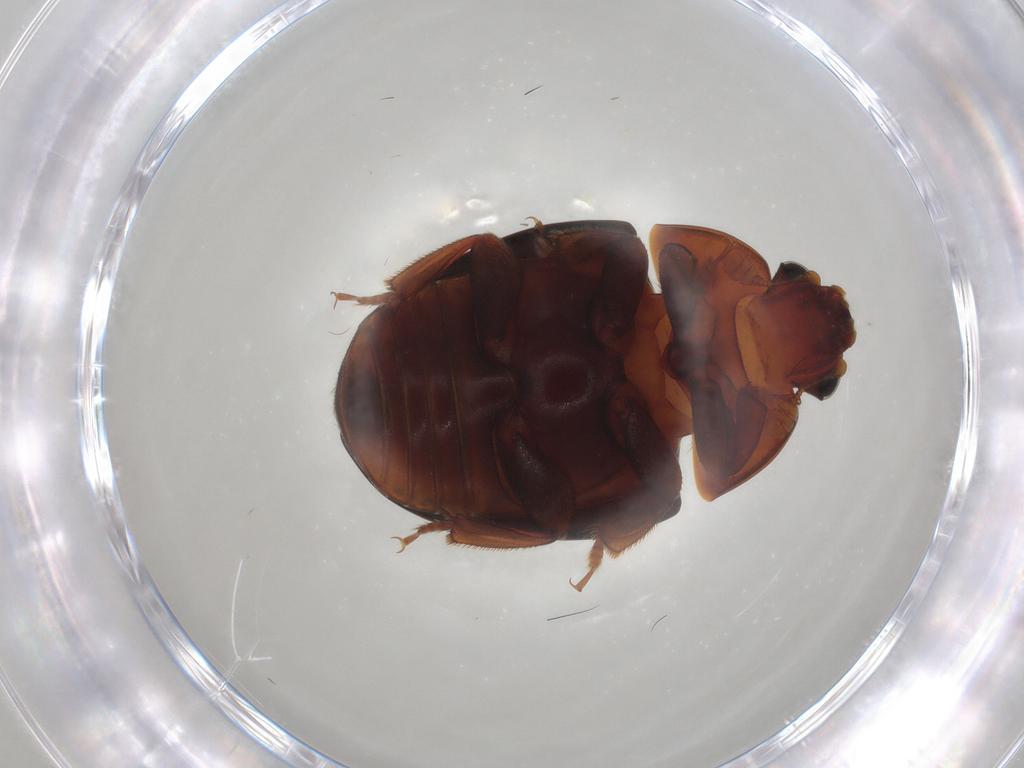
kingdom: Animalia
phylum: Arthropoda
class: Insecta
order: Coleoptera
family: Nitidulidae
